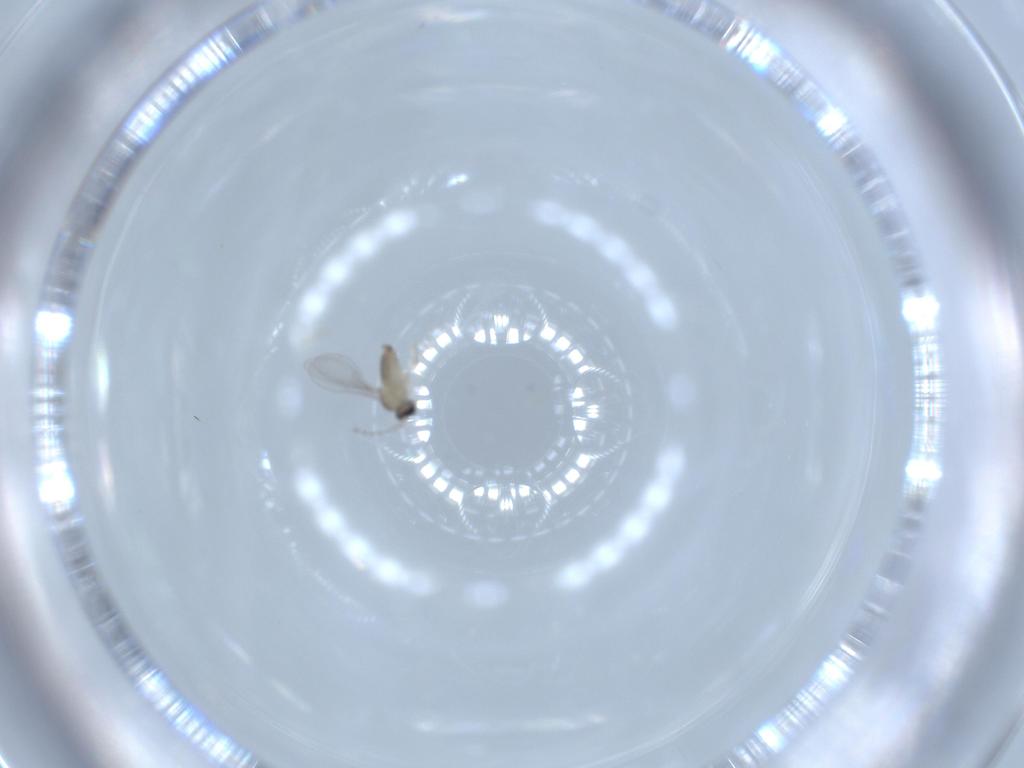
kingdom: Animalia
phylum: Arthropoda
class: Insecta
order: Diptera
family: Cecidomyiidae
